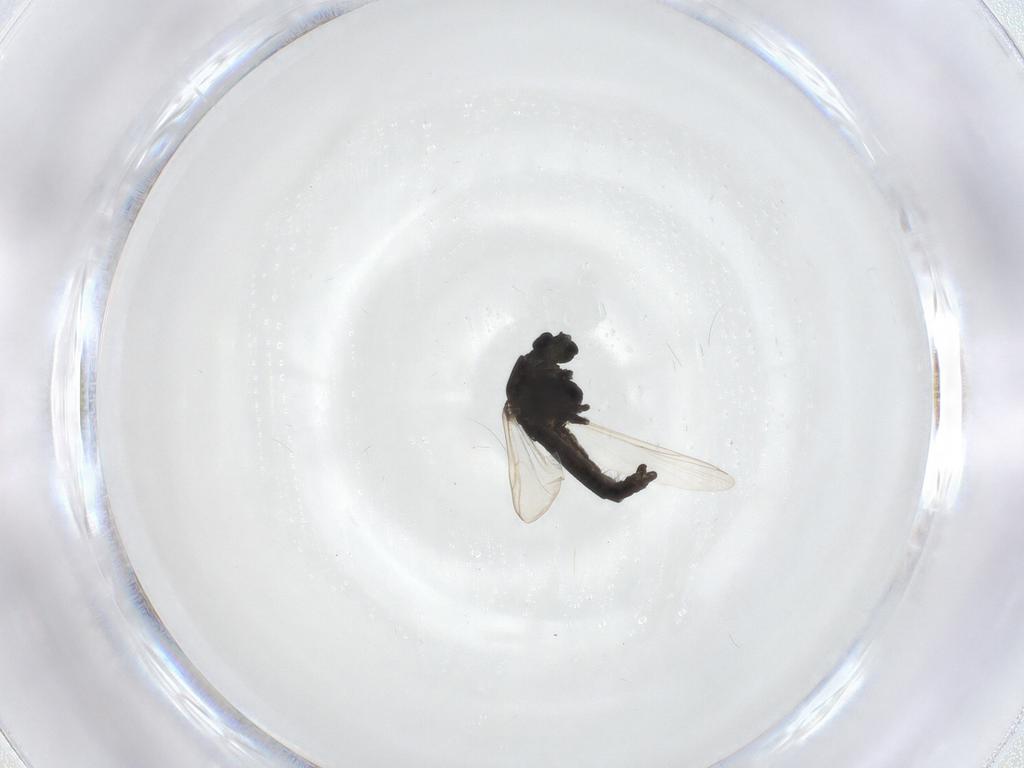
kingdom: Animalia
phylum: Arthropoda
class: Insecta
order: Diptera
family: Chironomidae
